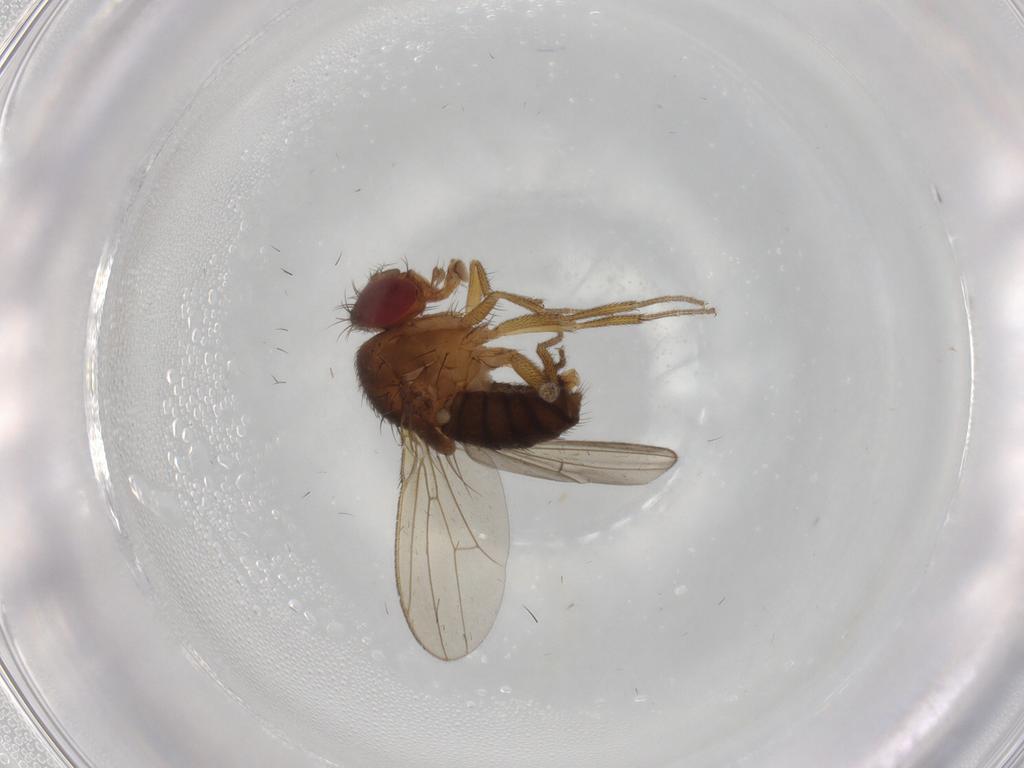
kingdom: Animalia
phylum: Arthropoda
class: Insecta
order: Diptera
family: Drosophilidae
